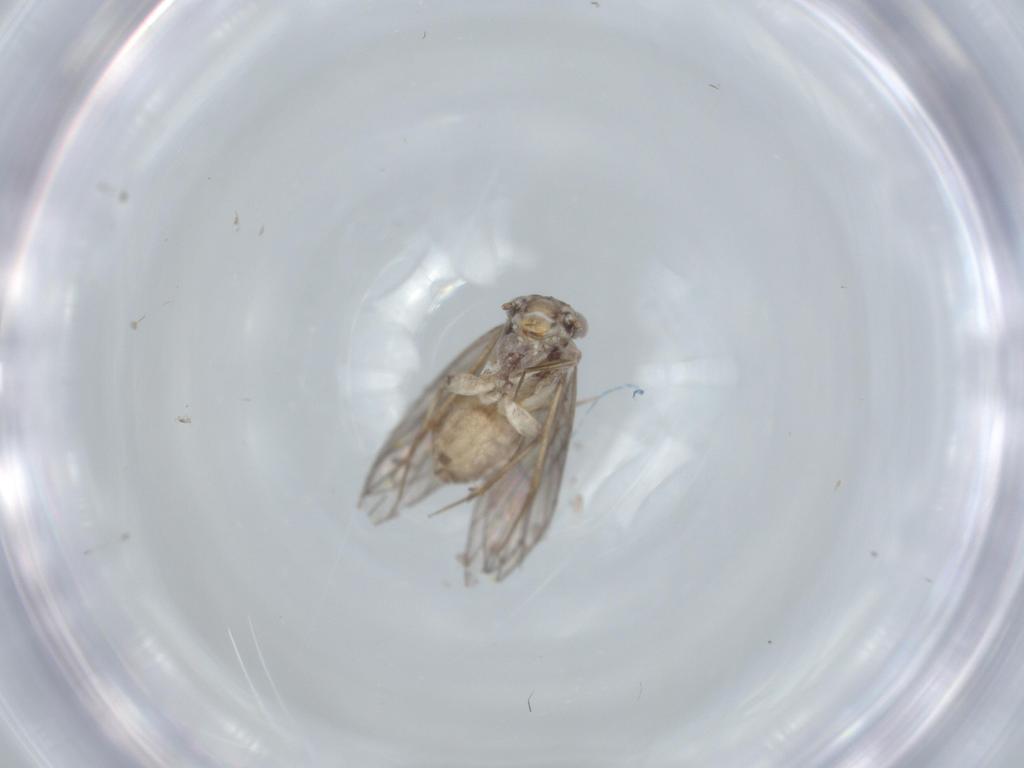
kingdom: Animalia
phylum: Arthropoda
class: Insecta
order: Psocodea
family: Lepidopsocidae
